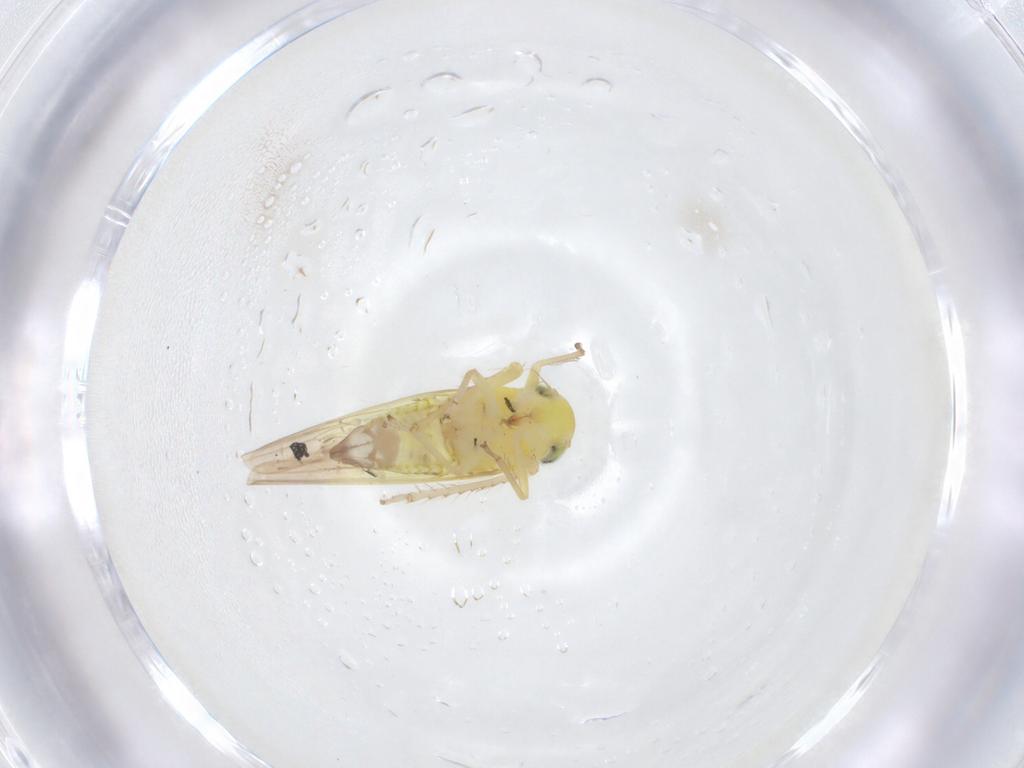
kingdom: Animalia
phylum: Arthropoda
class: Insecta
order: Hemiptera
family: Cicadellidae
